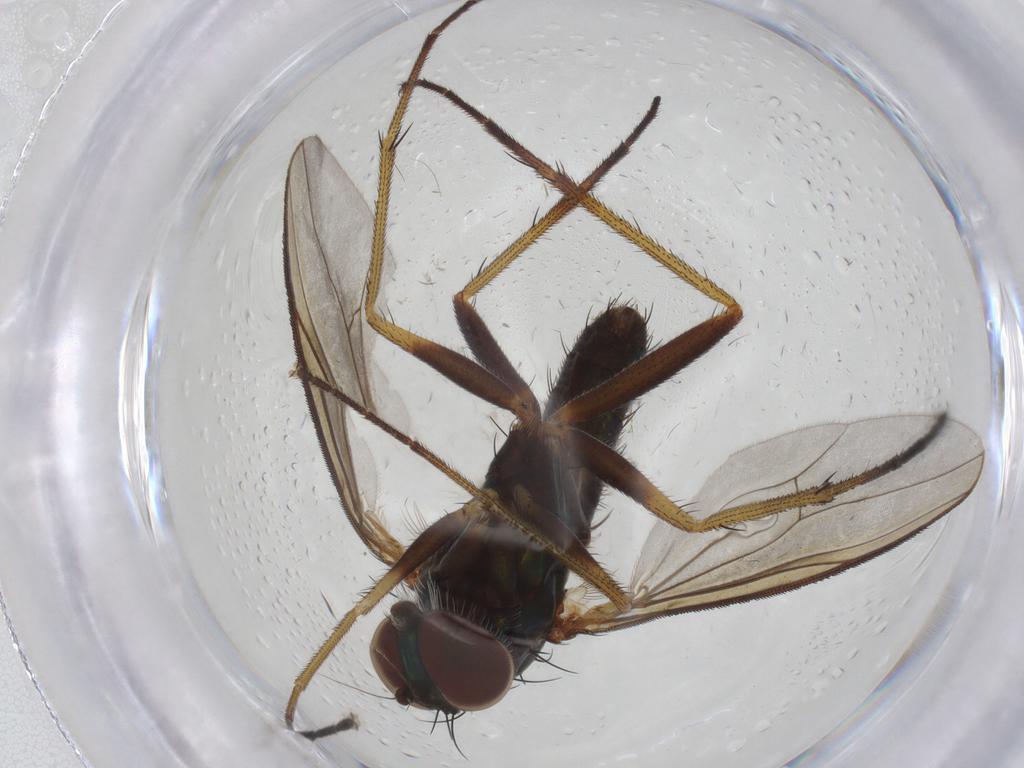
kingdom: Animalia
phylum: Arthropoda
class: Insecta
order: Diptera
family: Dolichopodidae
